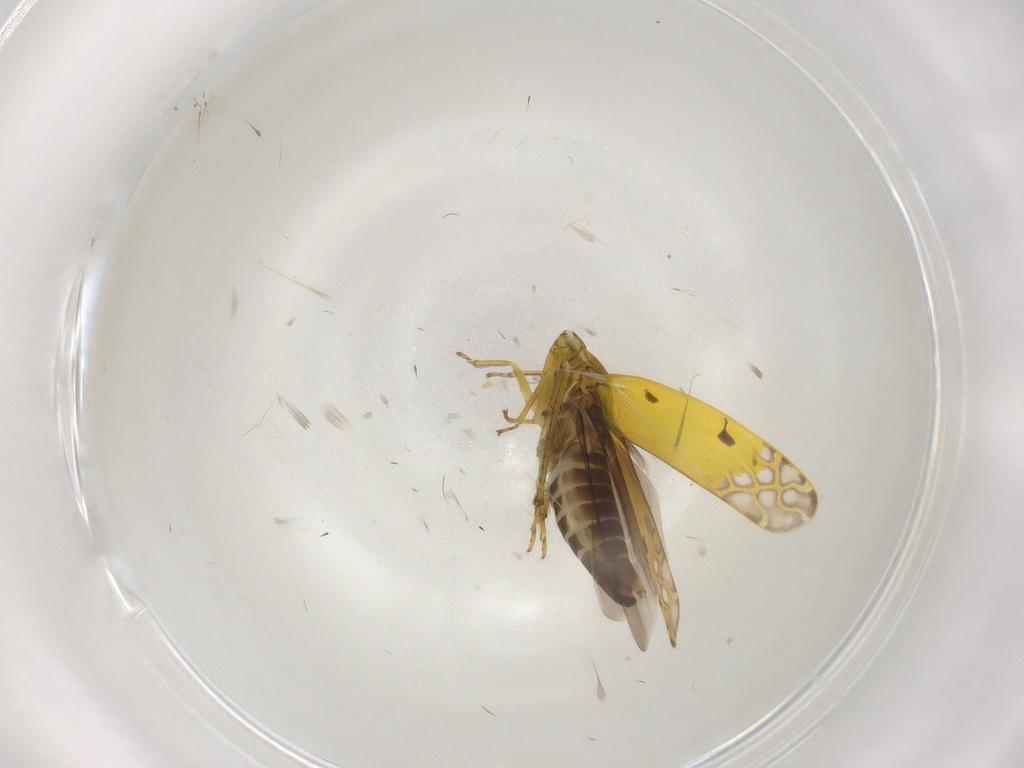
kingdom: Animalia
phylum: Arthropoda
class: Insecta
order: Hemiptera
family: Cicadellidae
